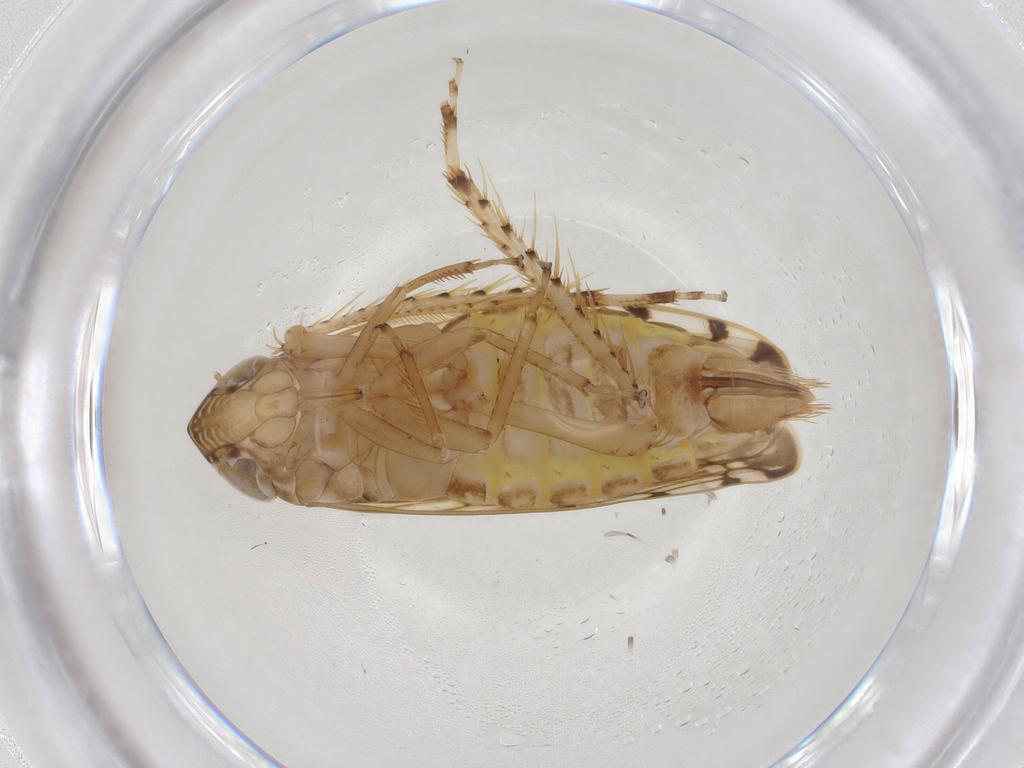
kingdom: Animalia
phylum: Arthropoda
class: Insecta
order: Hemiptera
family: Cicadellidae
